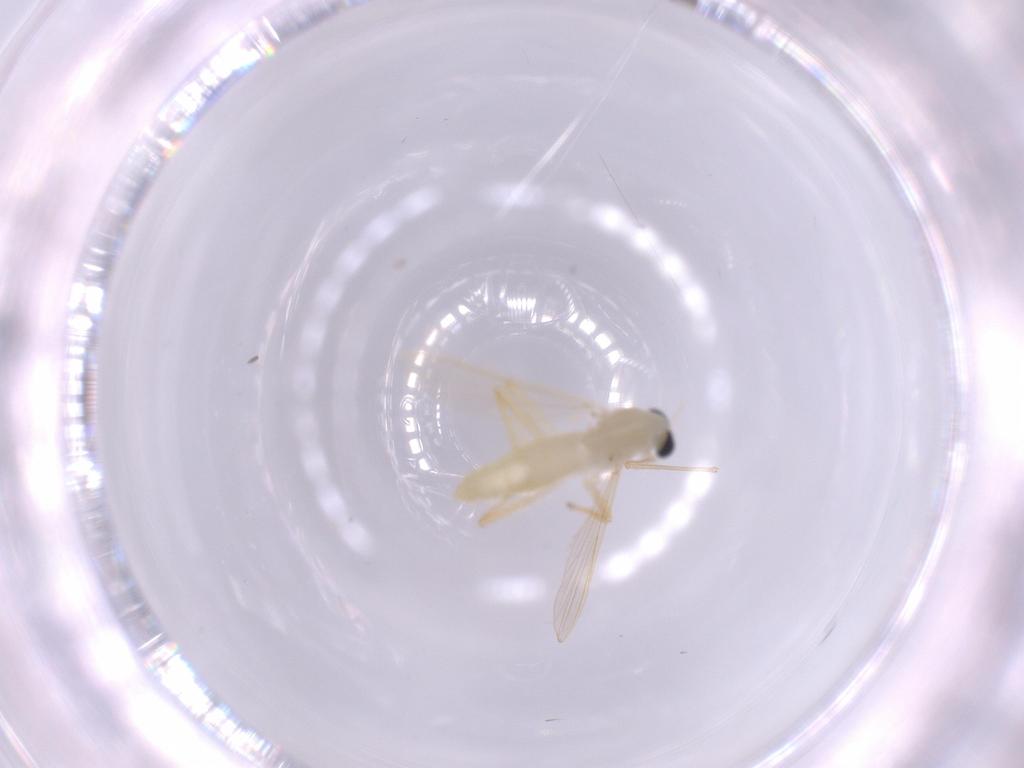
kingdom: Animalia
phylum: Arthropoda
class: Insecta
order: Diptera
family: Chironomidae
